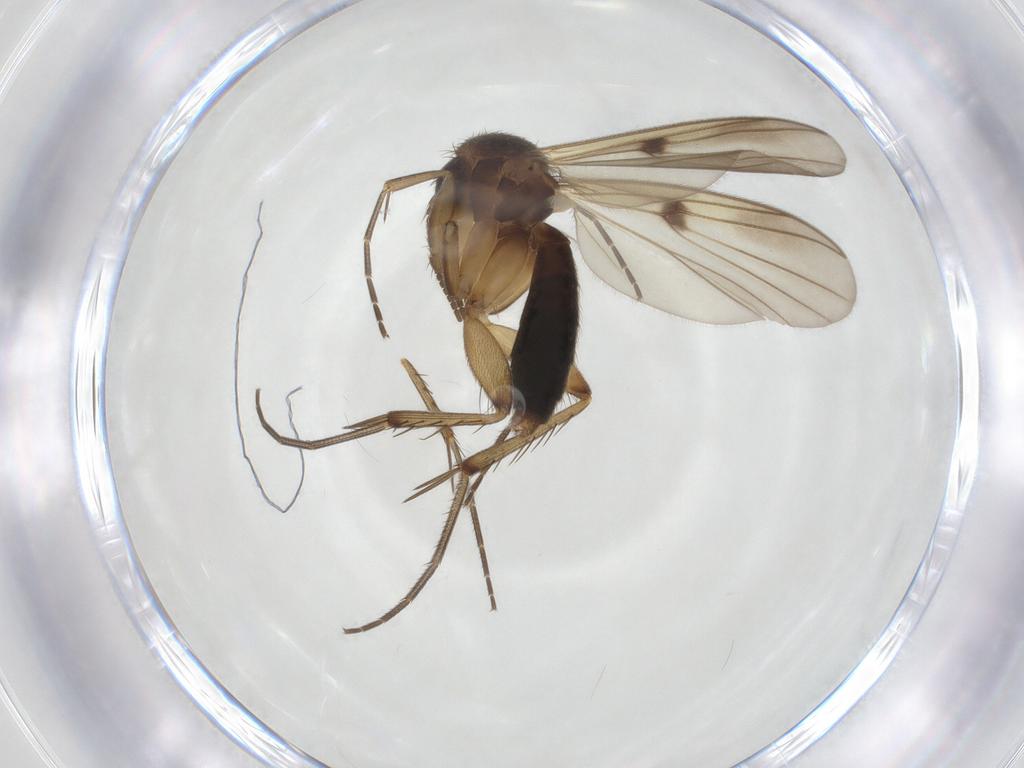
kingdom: Animalia
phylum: Arthropoda
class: Insecta
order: Diptera
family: Mycetophilidae
